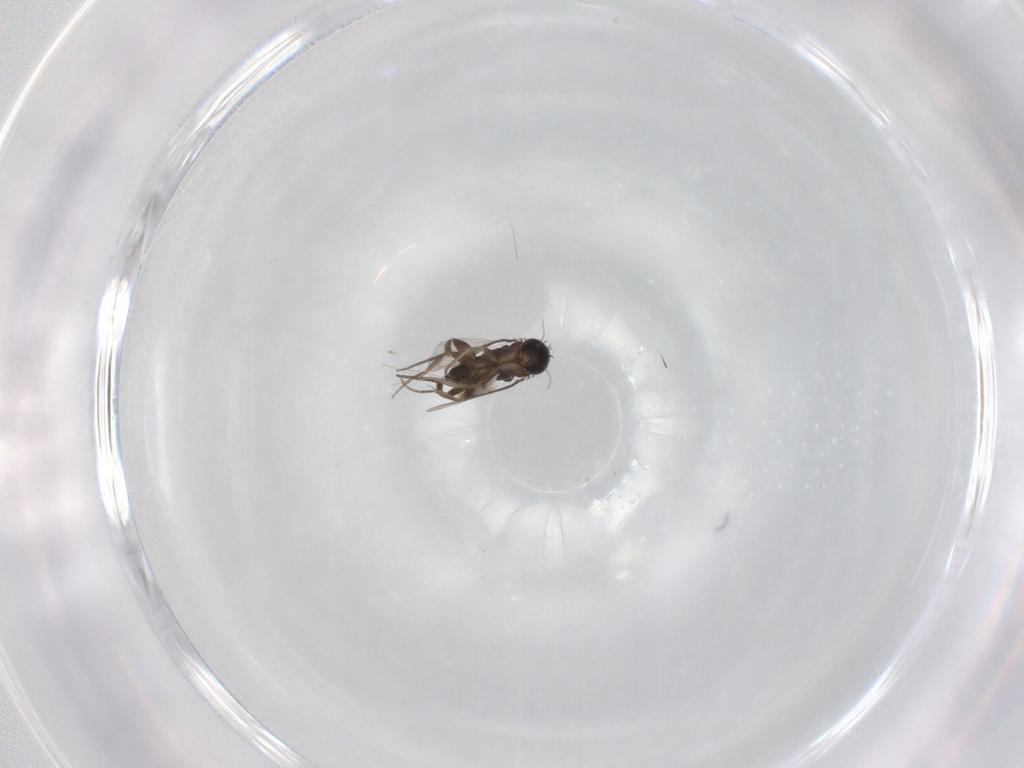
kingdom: Animalia
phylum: Arthropoda
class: Insecta
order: Diptera
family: Phoridae
